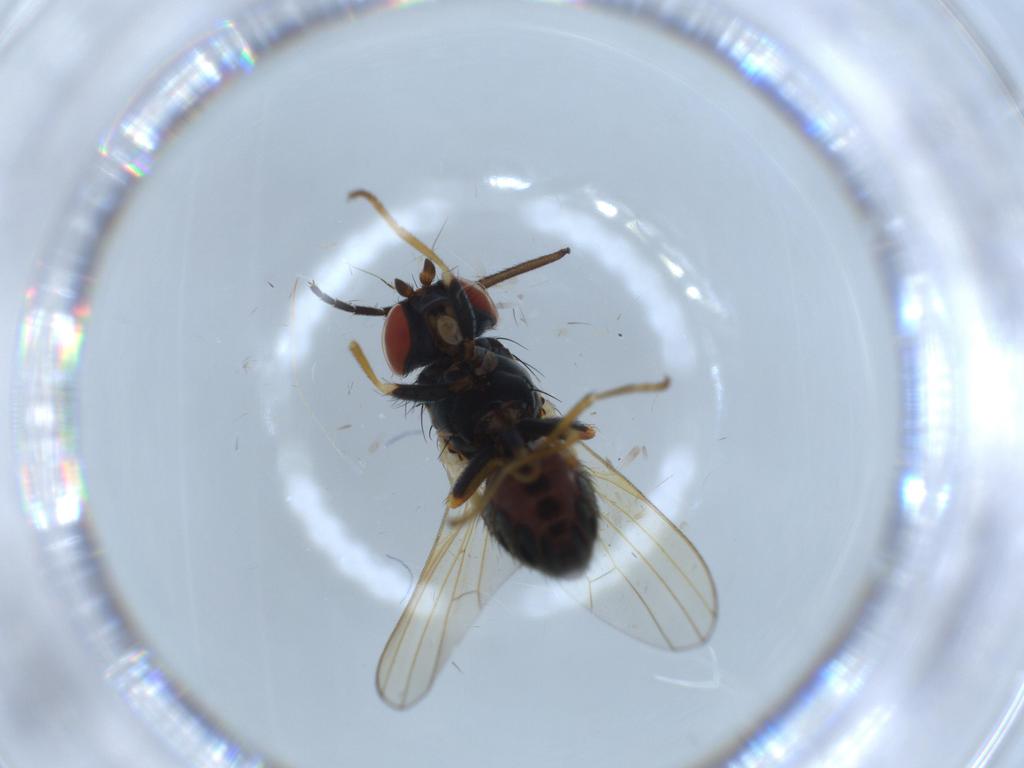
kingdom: Animalia
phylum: Arthropoda
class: Insecta
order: Diptera
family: Chamaemyiidae
